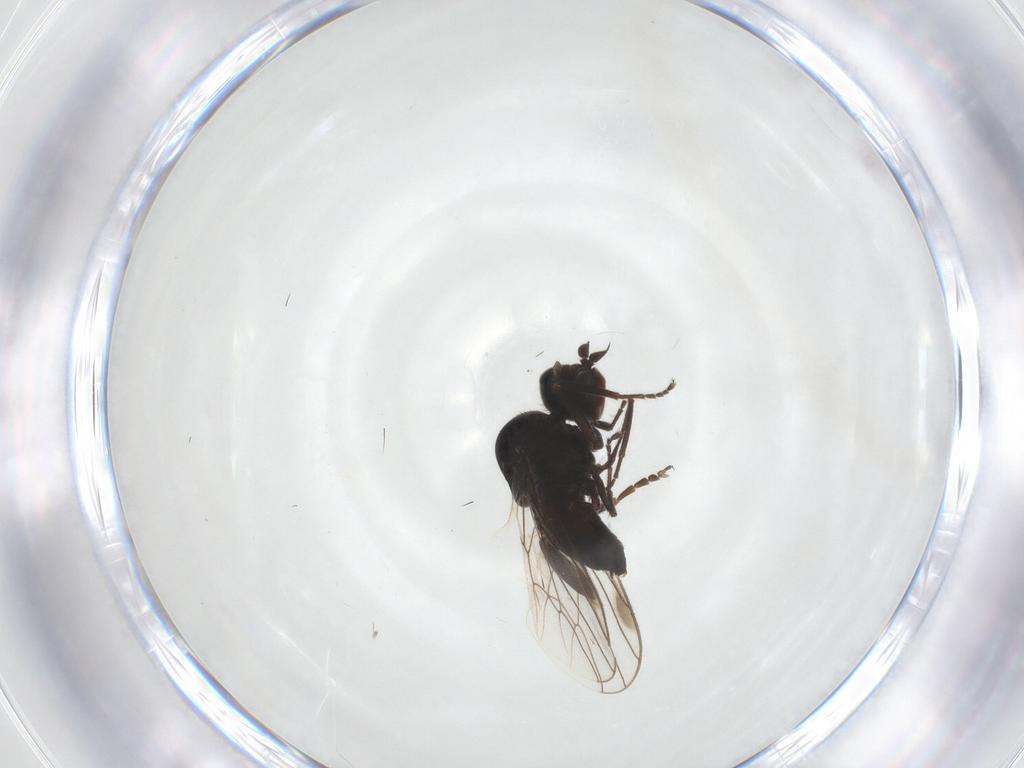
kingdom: Animalia
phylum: Arthropoda
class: Insecta
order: Diptera
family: Hybotidae
